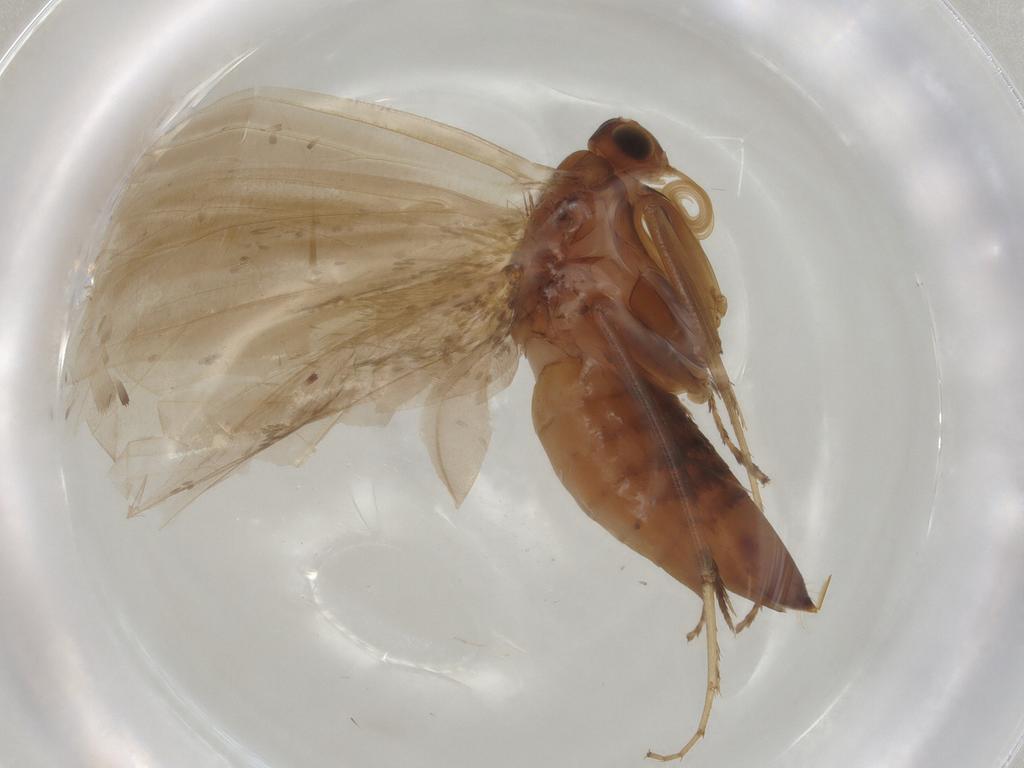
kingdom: Animalia
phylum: Arthropoda
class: Insecta
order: Lepidoptera
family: Adelidae
